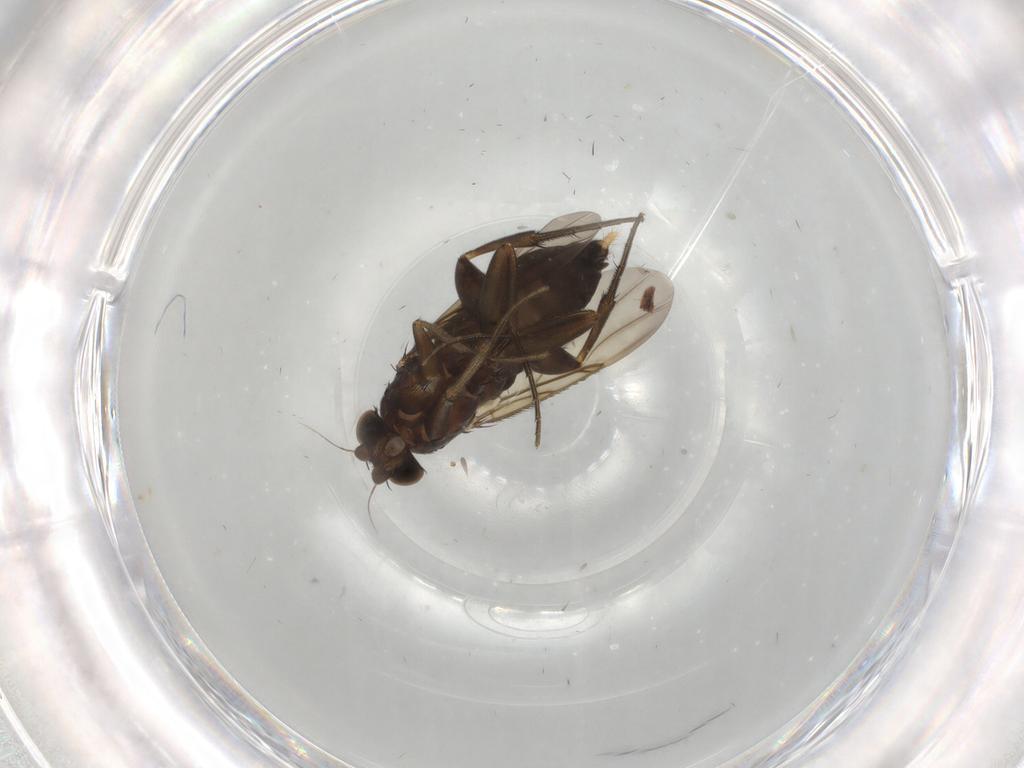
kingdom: Animalia
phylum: Arthropoda
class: Insecta
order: Diptera
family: Phoridae
